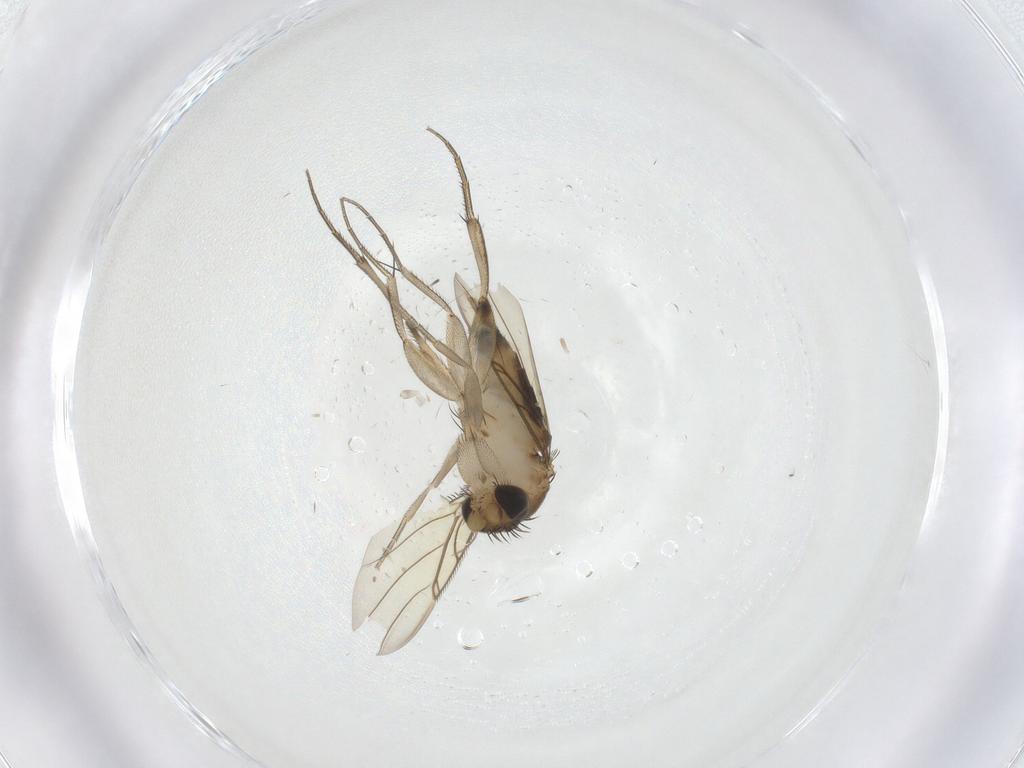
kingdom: Animalia
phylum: Arthropoda
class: Insecta
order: Diptera
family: Phoridae
